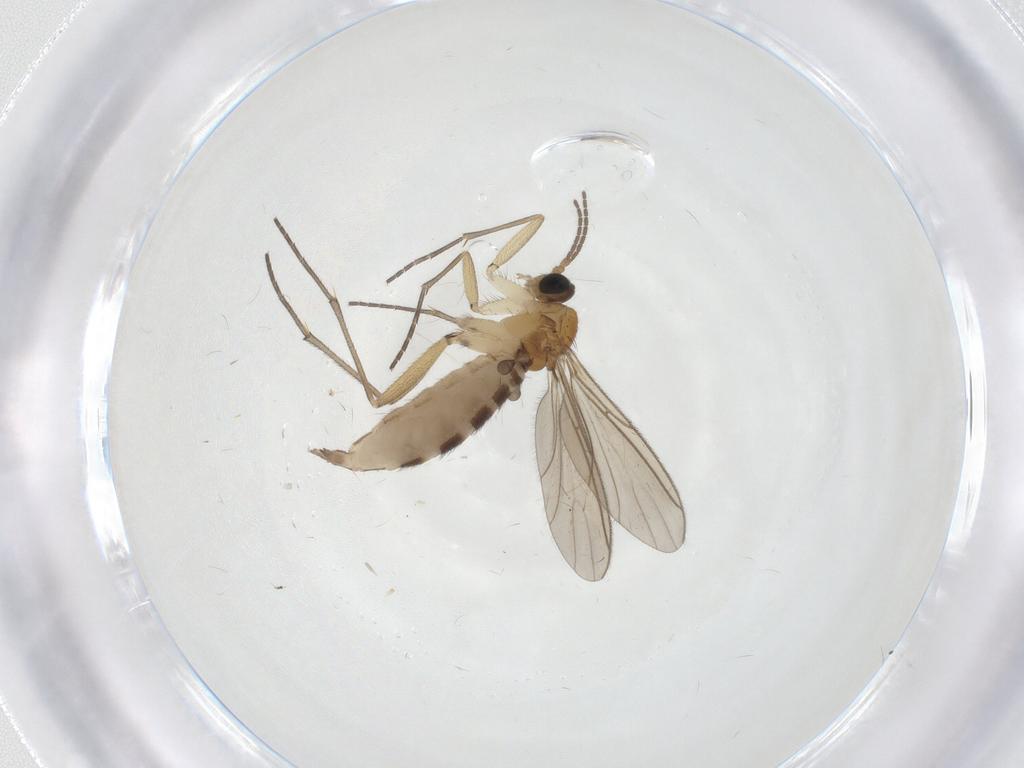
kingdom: Animalia
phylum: Arthropoda
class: Insecta
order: Diptera
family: Sciaridae
